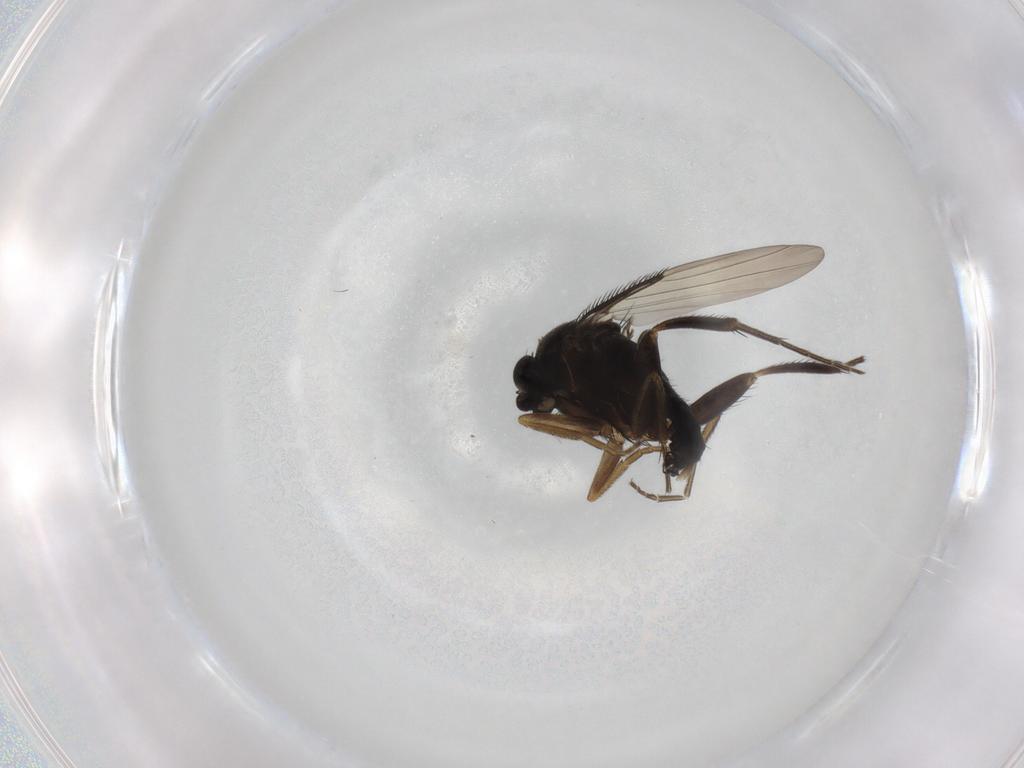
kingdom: Animalia
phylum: Arthropoda
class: Insecta
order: Diptera
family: Phoridae
